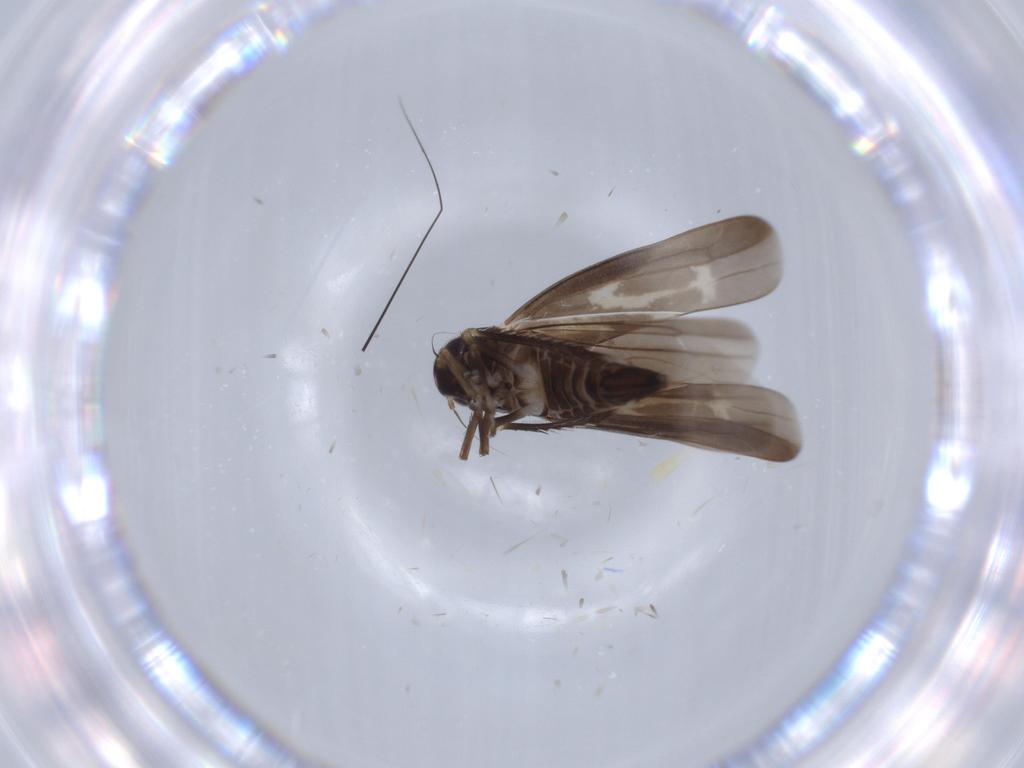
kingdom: Animalia
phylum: Arthropoda
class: Insecta
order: Hemiptera
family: Cicadellidae
